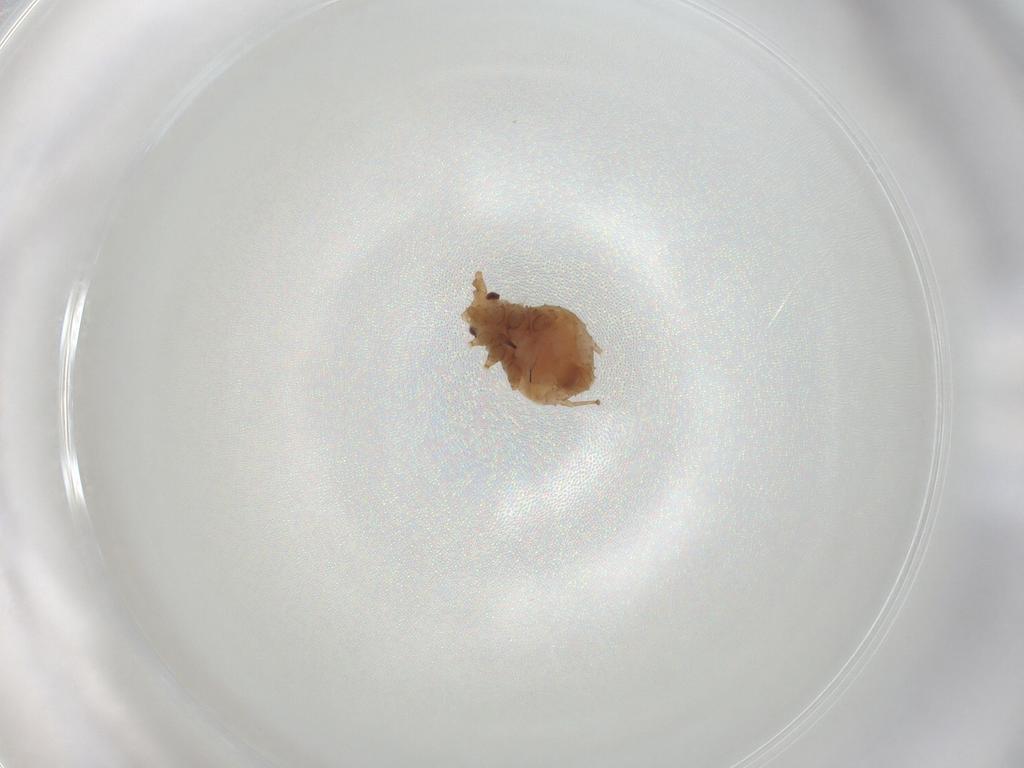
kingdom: Animalia
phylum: Arthropoda
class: Insecta
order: Hemiptera
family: Aphididae
